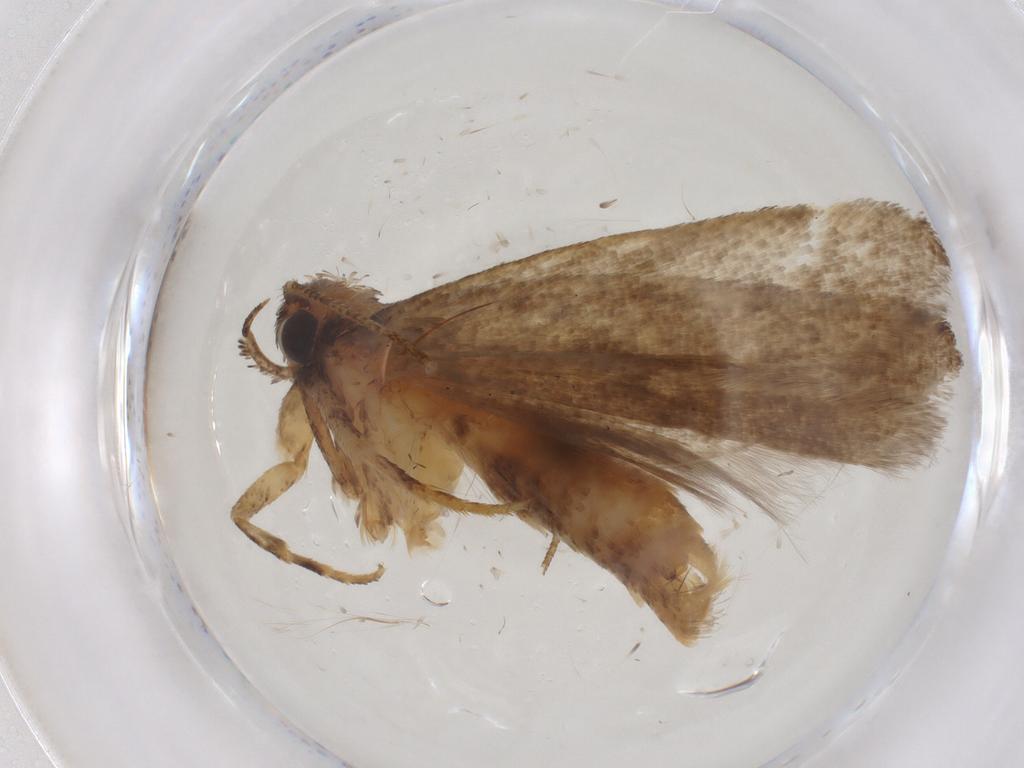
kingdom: Animalia
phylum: Arthropoda
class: Insecta
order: Lepidoptera
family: Gelechiidae
